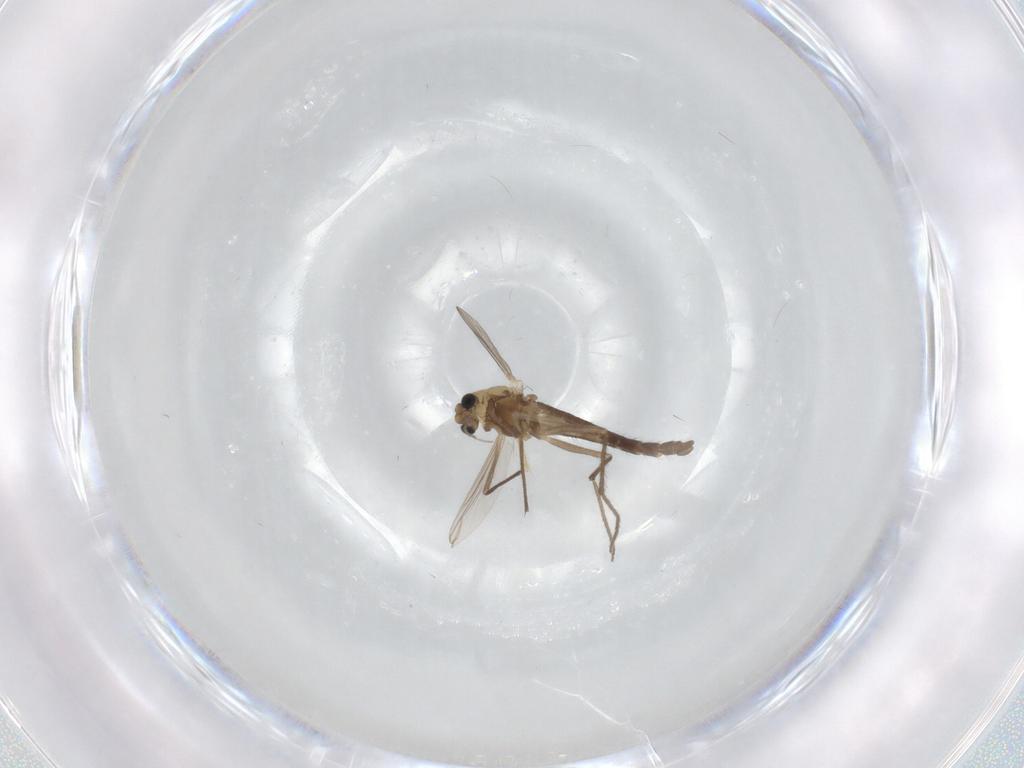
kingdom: Animalia
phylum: Arthropoda
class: Insecta
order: Diptera
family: Chironomidae
